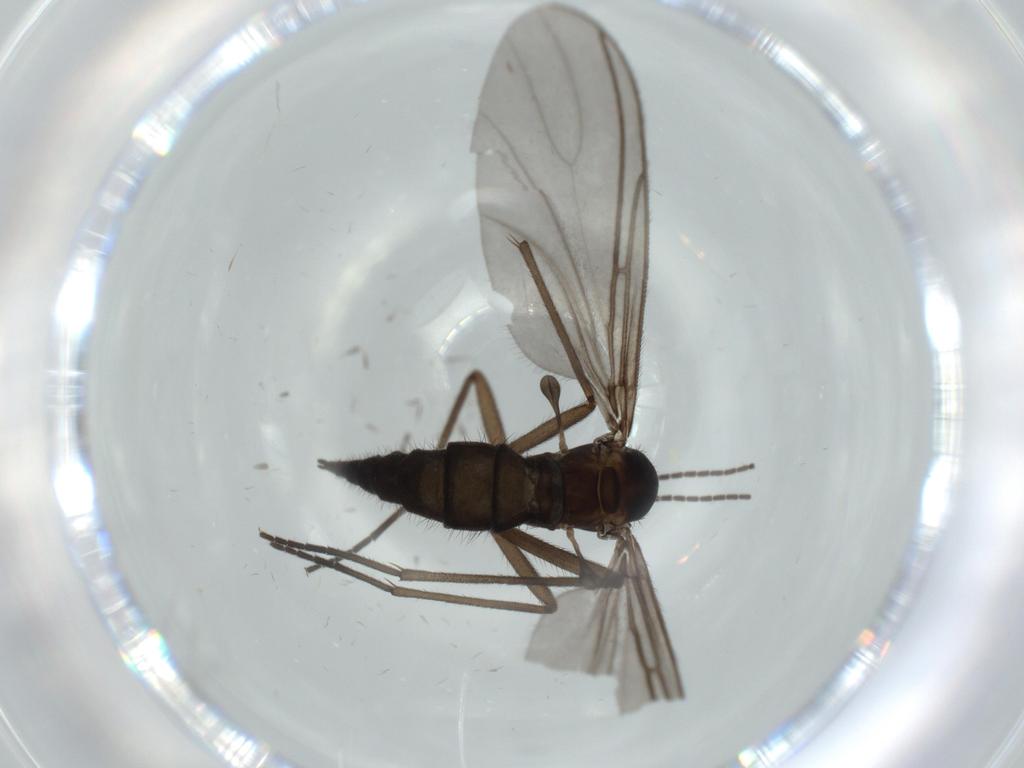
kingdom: Animalia
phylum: Arthropoda
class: Insecta
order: Diptera
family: Sciaridae
